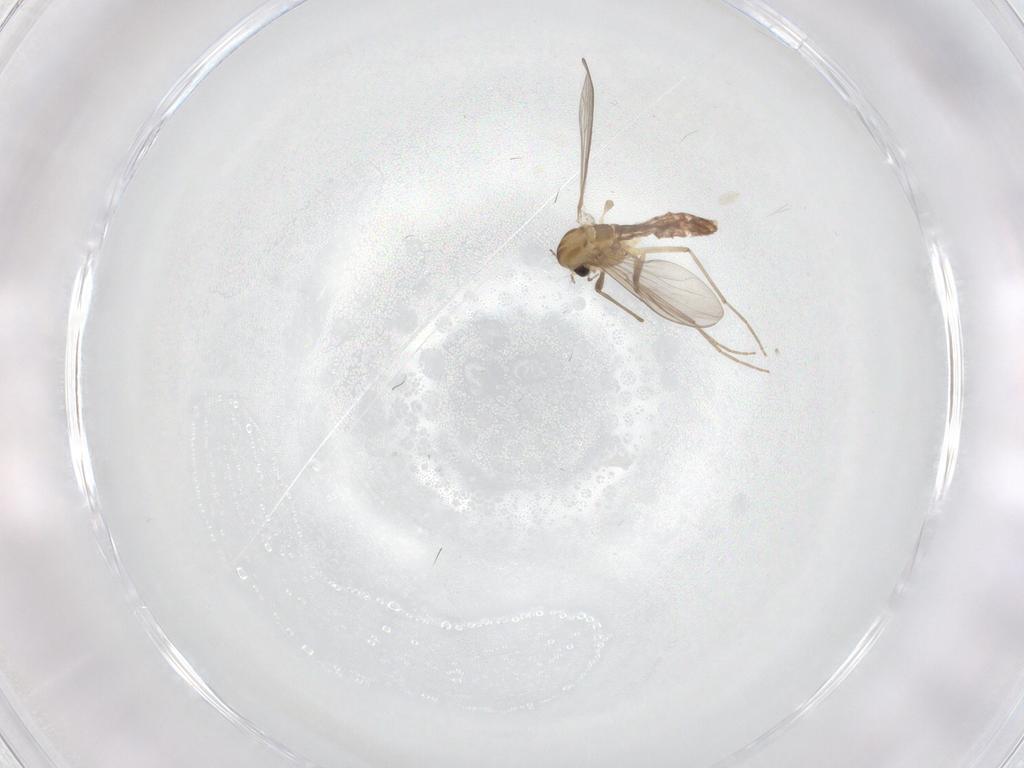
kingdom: Animalia
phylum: Arthropoda
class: Insecta
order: Diptera
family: Chironomidae
